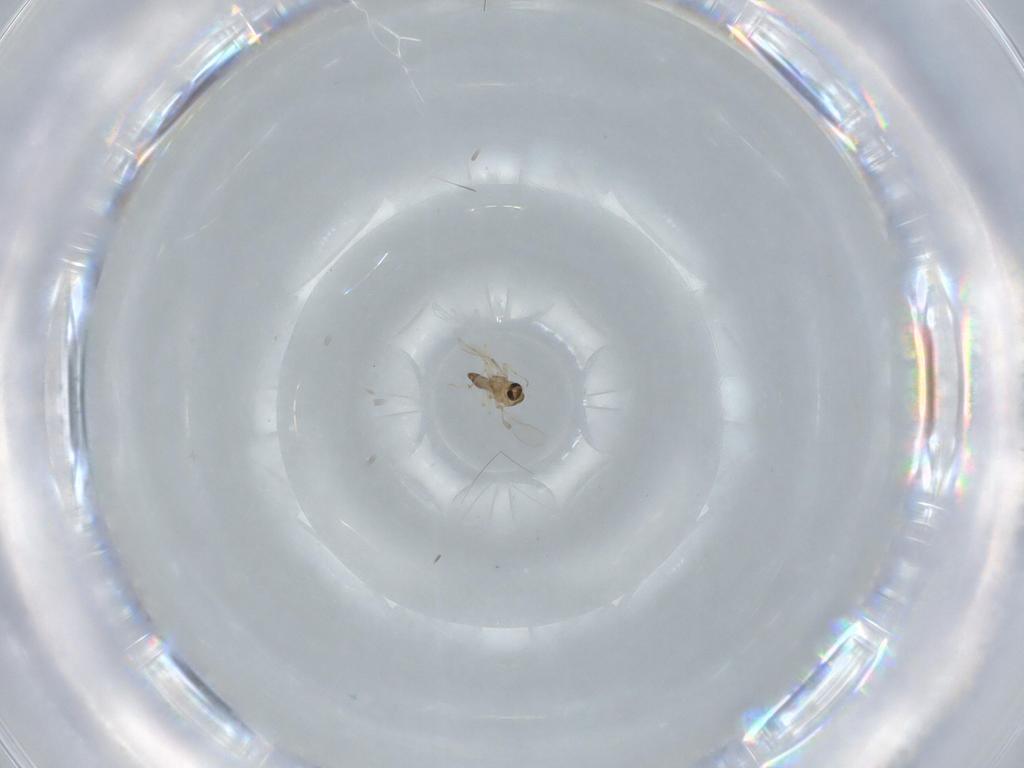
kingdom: Animalia
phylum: Arthropoda
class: Insecta
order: Diptera
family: Chironomidae
